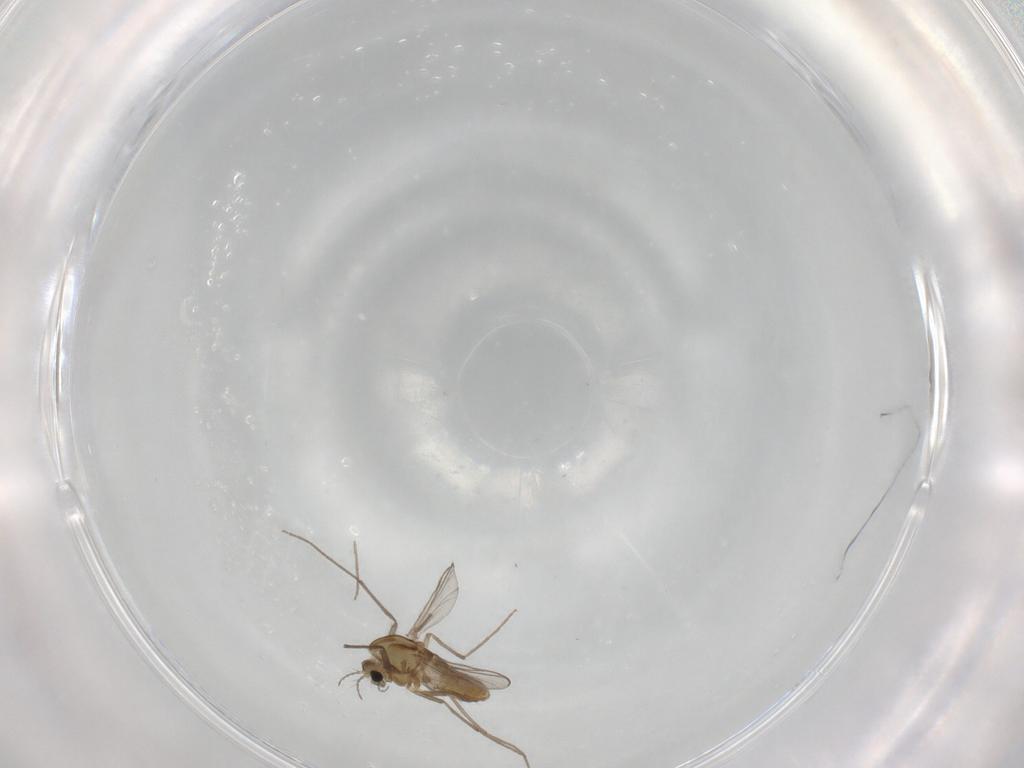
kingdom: Animalia
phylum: Arthropoda
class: Insecta
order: Diptera
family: Chironomidae
